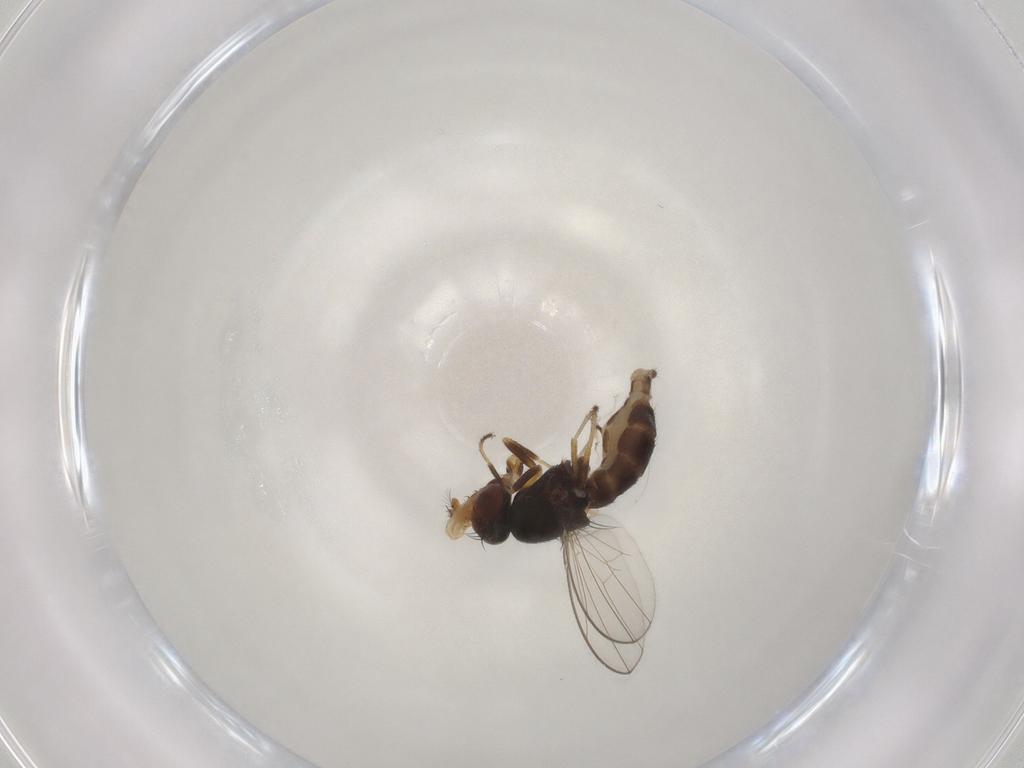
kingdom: Animalia
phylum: Arthropoda
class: Insecta
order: Diptera
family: Ephydridae
